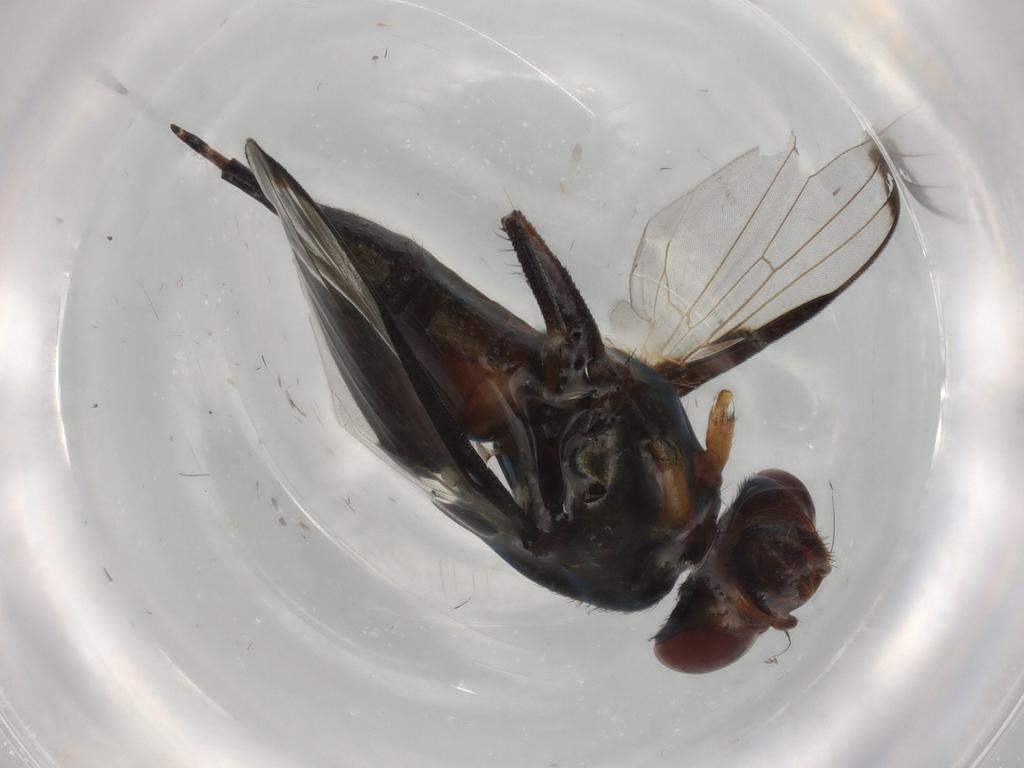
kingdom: Animalia
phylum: Arthropoda
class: Insecta
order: Diptera
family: Ulidiidae
